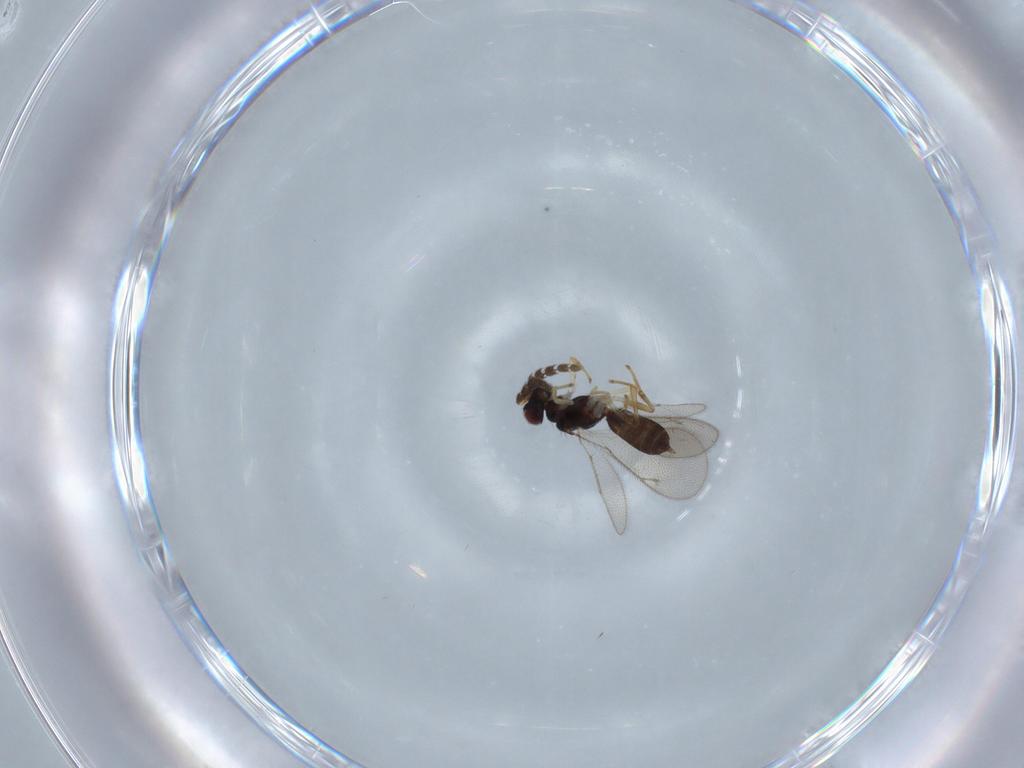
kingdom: Animalia
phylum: Arthropoda
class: Insecta
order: Hymenoptera
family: Eulophidae
